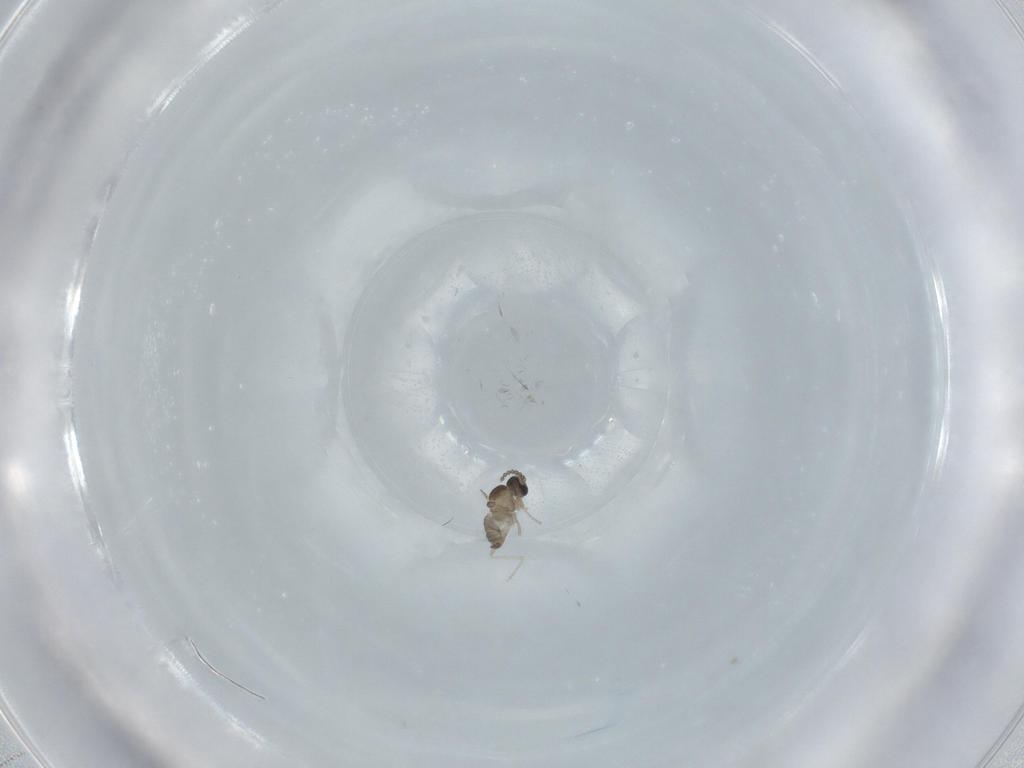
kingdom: Animalia
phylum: Arthropoda
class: Insecta
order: Diptera
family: Cecidomyiidae
